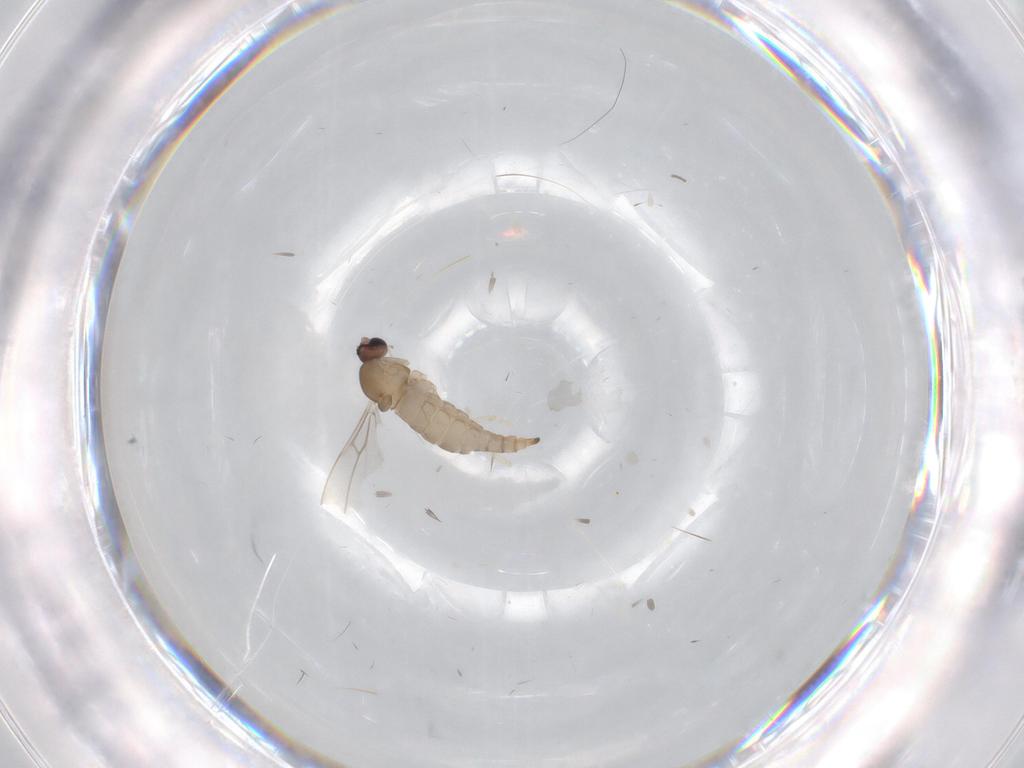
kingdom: Animalia
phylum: Arthropoda
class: Insecta
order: Diptera
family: Cecidomyiidae
